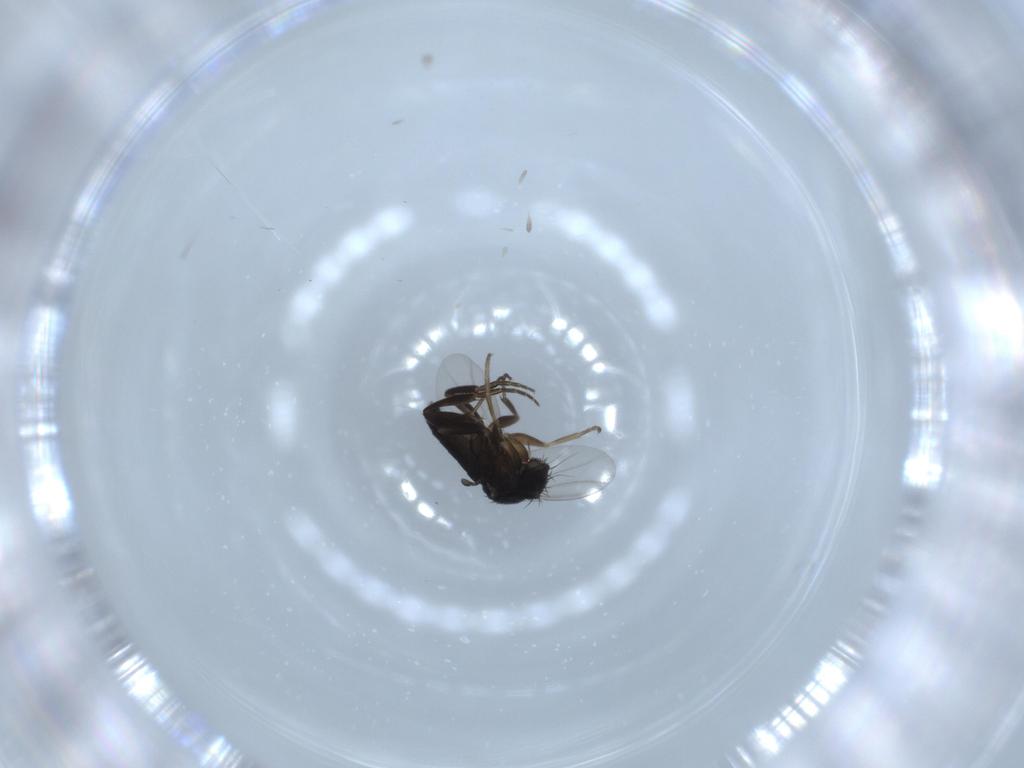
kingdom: Animalia
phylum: Arthropoda
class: Insecta
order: Diptera
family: Phoridae
